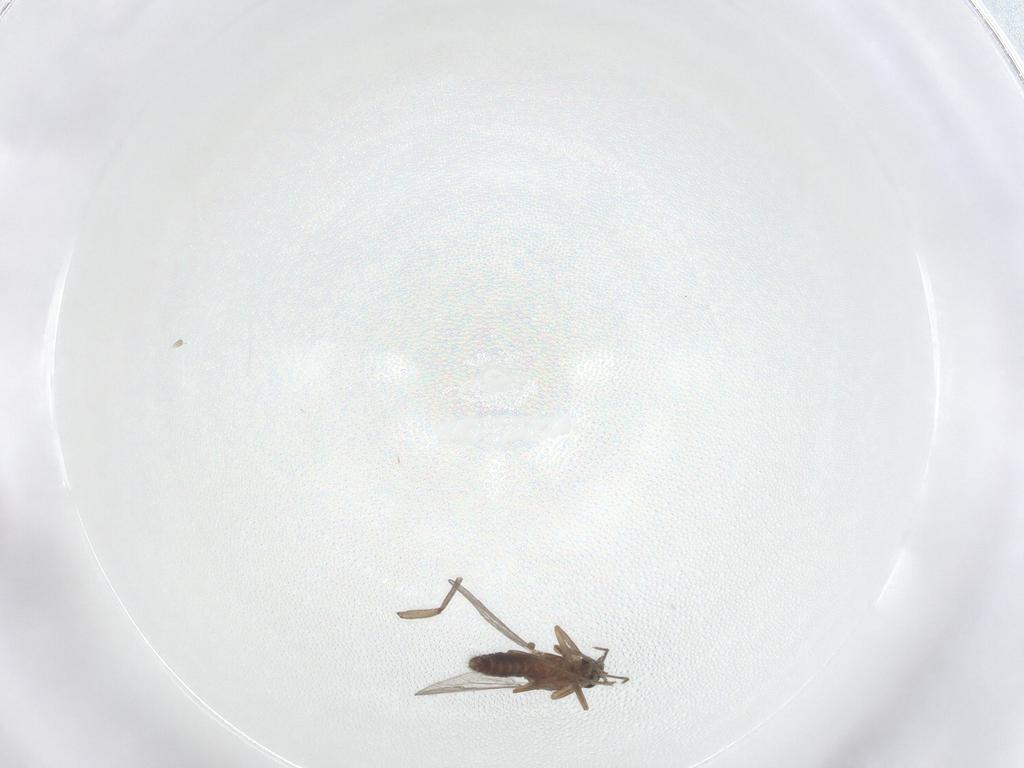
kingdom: Animalia
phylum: Arthropoda
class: Insecta
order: Diptera
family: Ceratopogonidae
